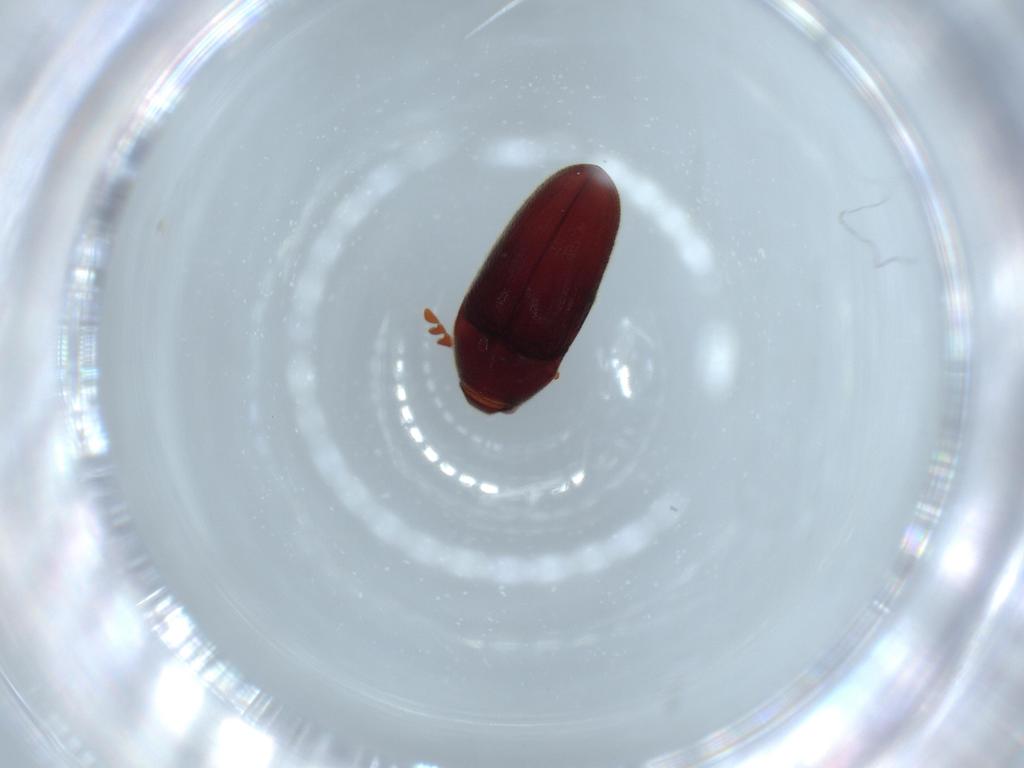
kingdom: Animalia
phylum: Arthropoda
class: Insecta
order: Coleoptera
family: Throscidae
